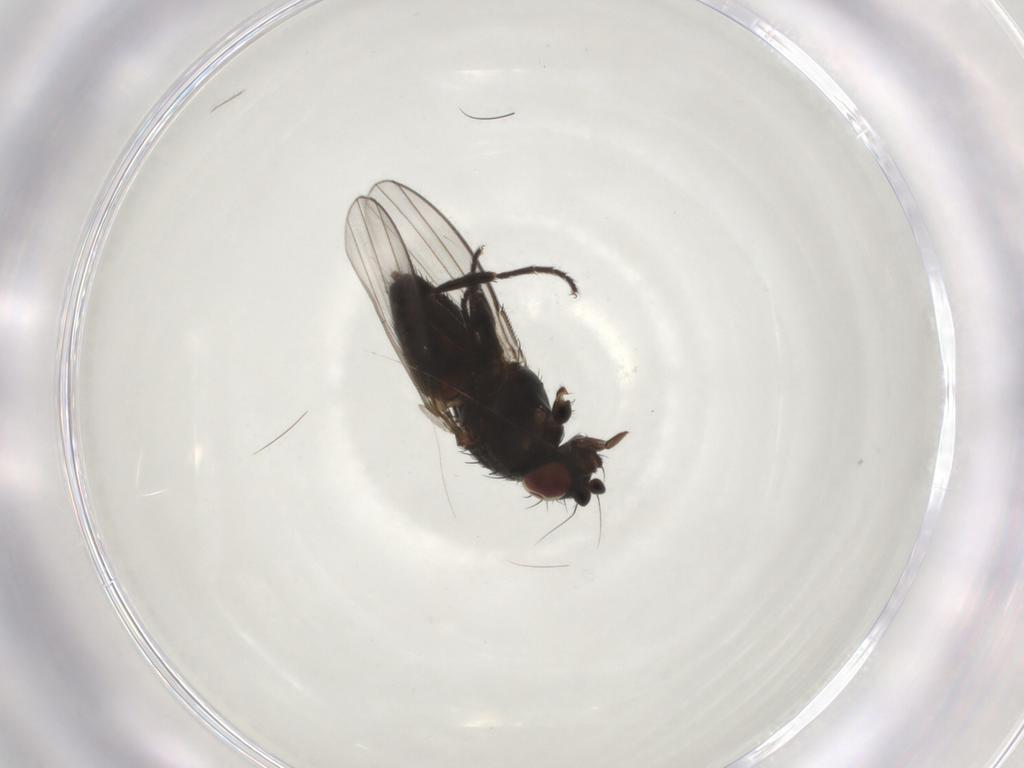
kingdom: Animalia
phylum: Arthropoda
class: Insecta
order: Diptera
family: Milichiidae
